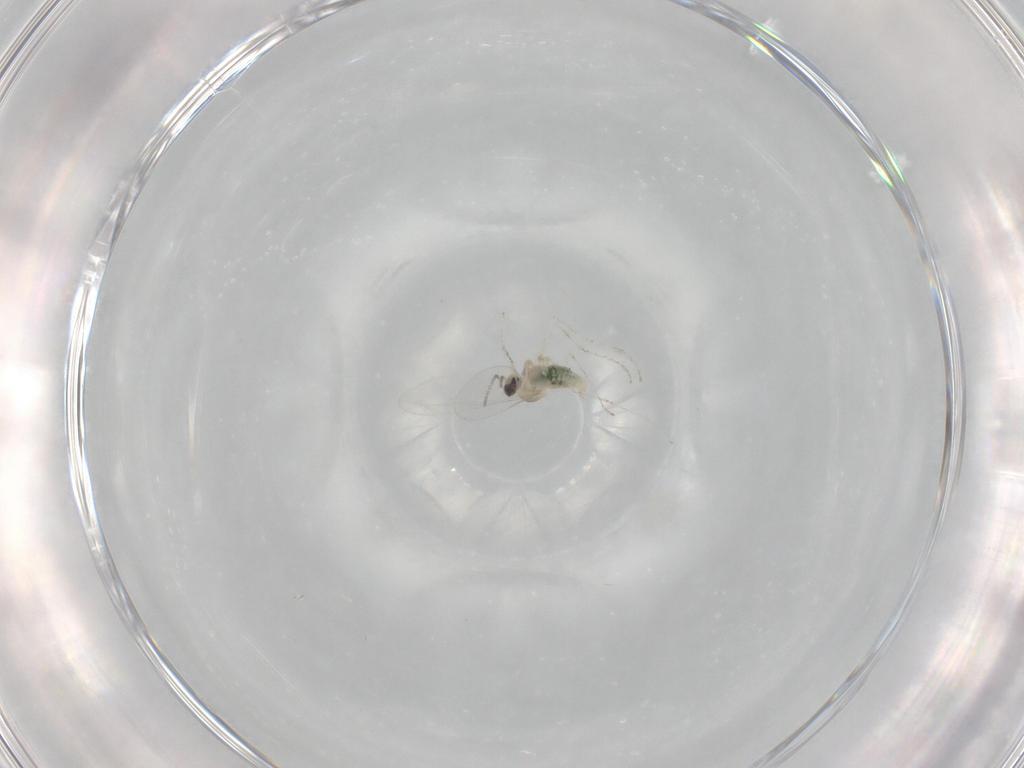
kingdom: Animalia
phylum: Arthropoda
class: Insecta
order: Diptera
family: Cecidomyiidae
